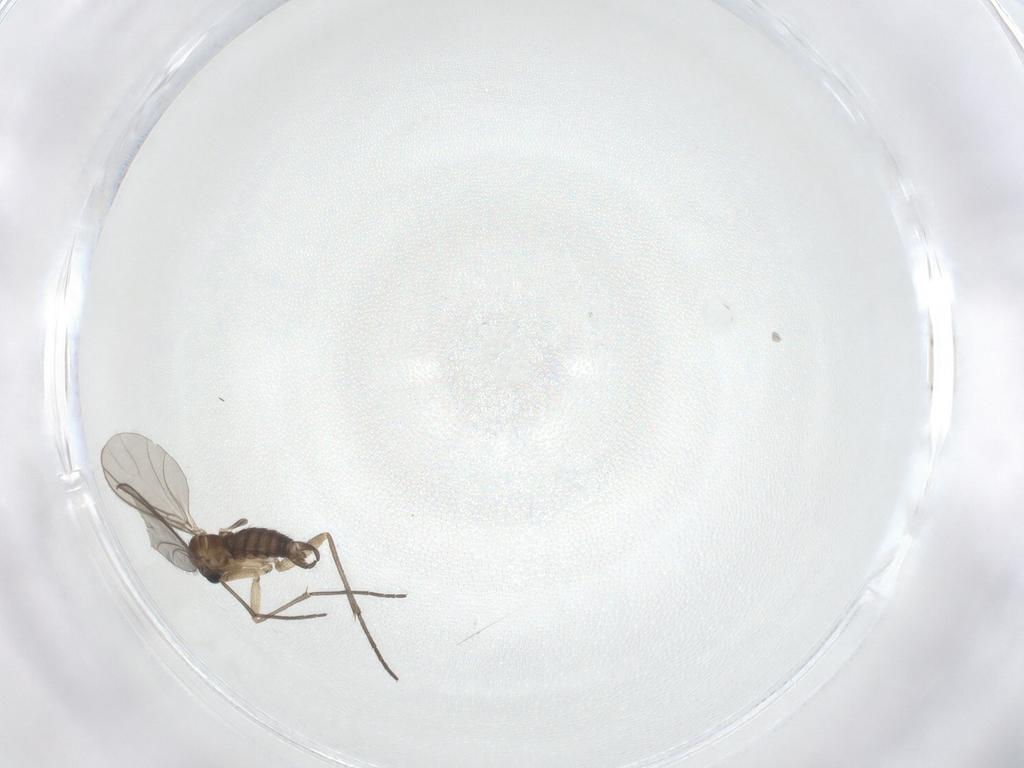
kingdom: Animalia
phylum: Arthropoda
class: Insecta
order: Diptera
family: Sciaridae
